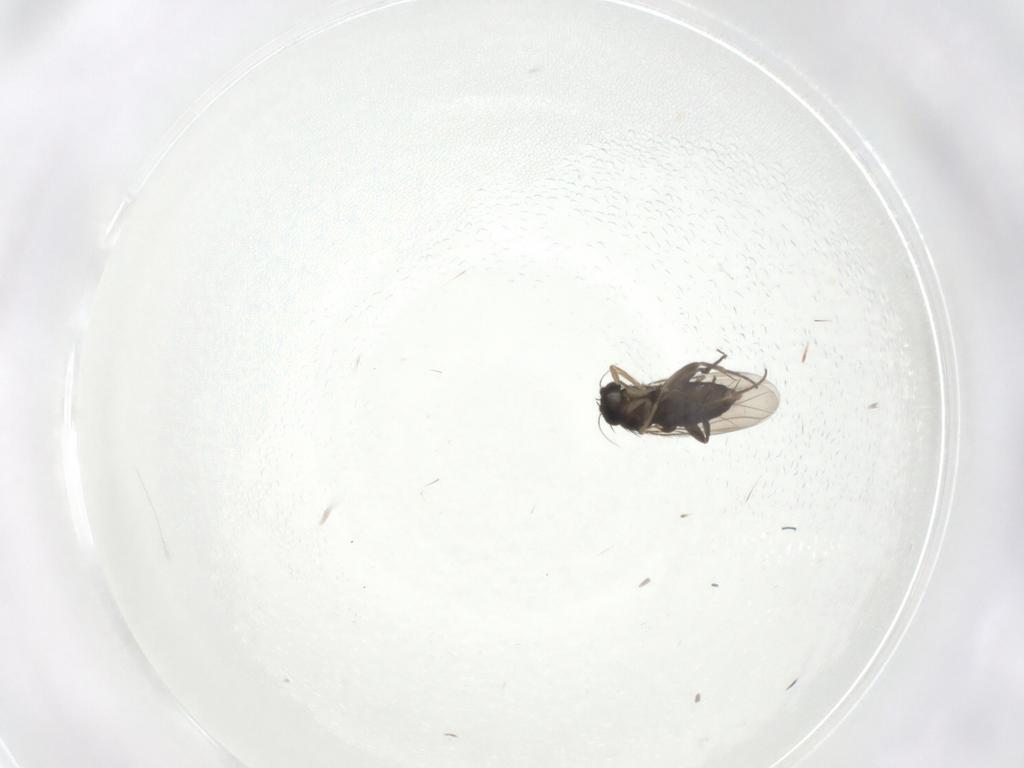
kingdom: Animalia
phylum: Arthropoda
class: Insecta
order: Diptera
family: Phoridae
